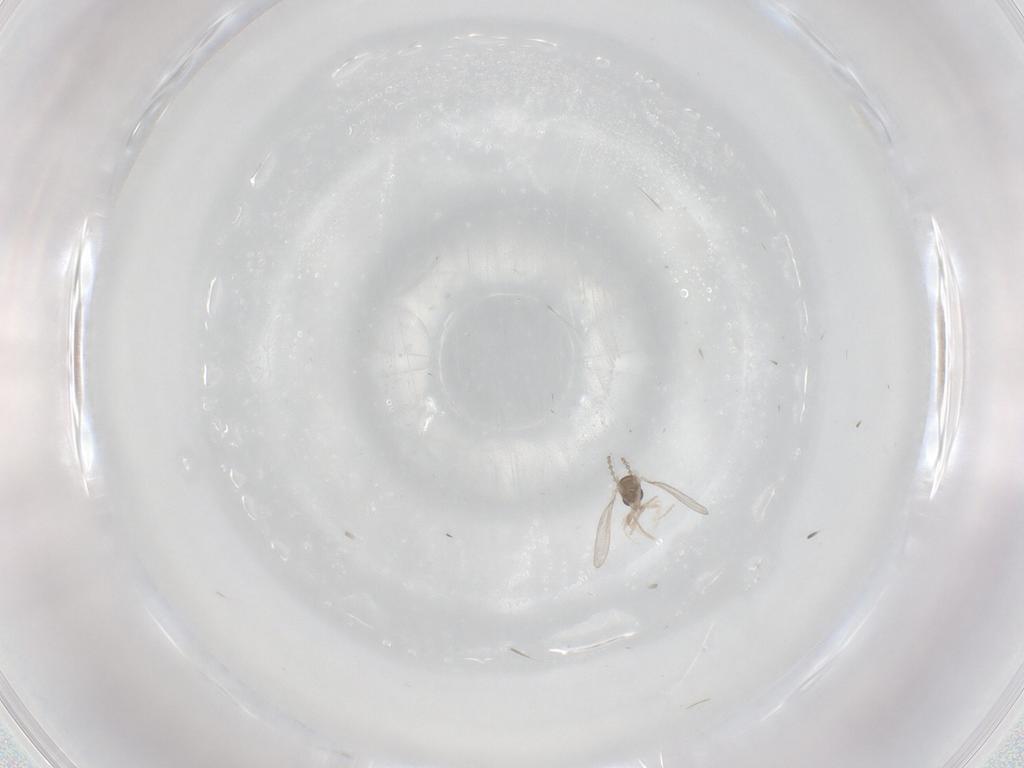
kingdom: Animalia
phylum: Arthropoda
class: Insecta
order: Diptera
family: Cecidomyiidae
